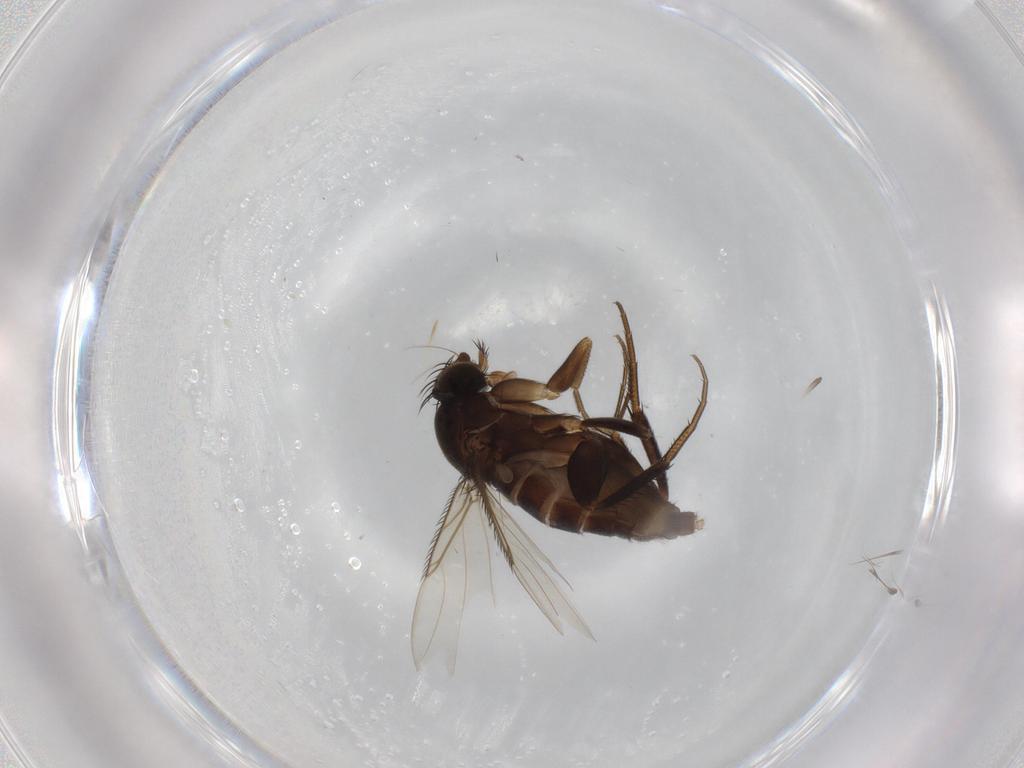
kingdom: Animalia
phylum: Arthropoda
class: Insecta
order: Diptera
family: Phoridae
